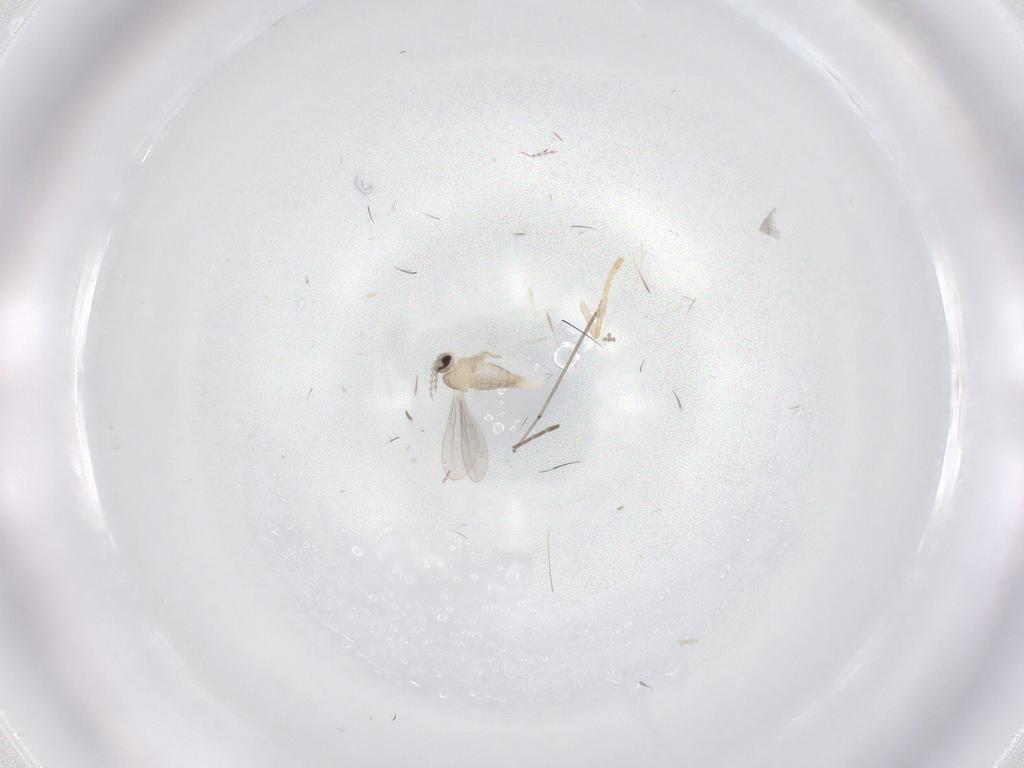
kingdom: Animalia
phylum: Arthropoda
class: Insecta
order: Diptera
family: Cecidomyiidae
